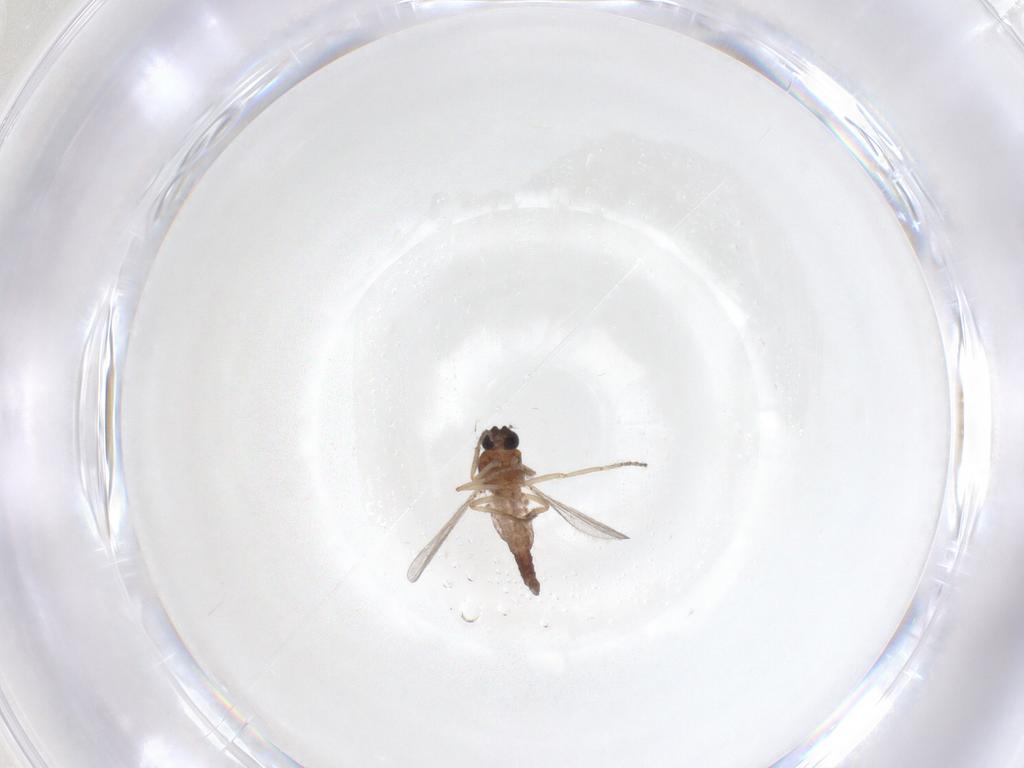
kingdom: Animalia
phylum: Arthropoda
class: Insecta
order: Diptera
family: Ceratopogonidae
